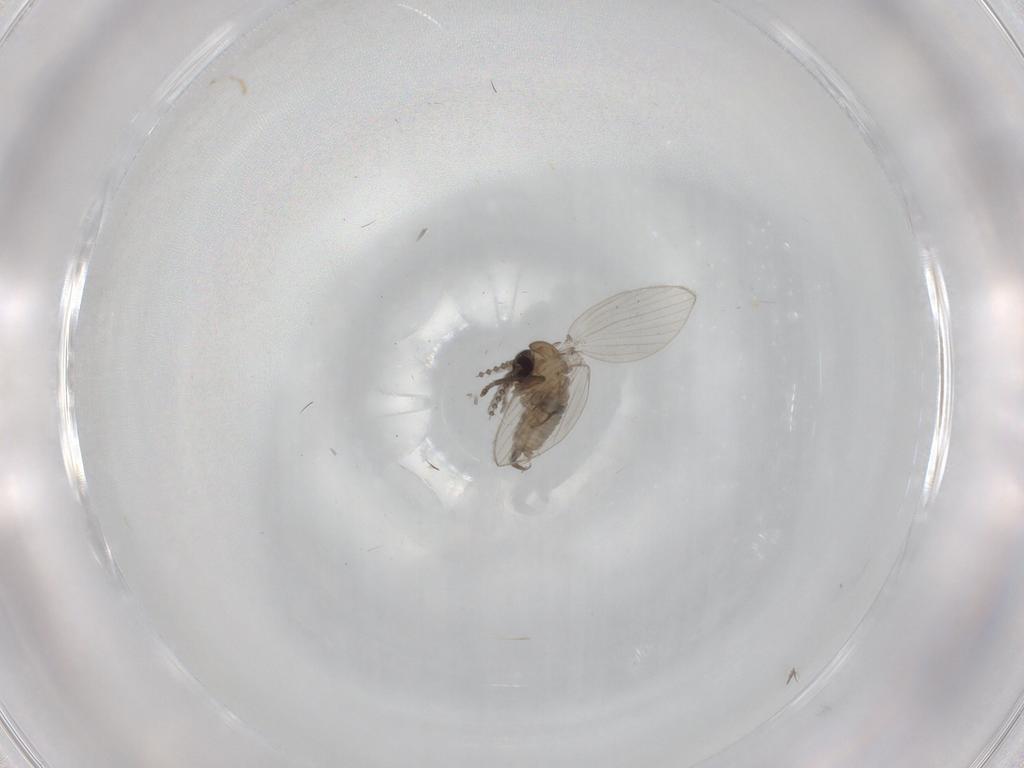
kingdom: Animalia
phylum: Arthropoda
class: Insecta
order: Diptera
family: Psychodidae
